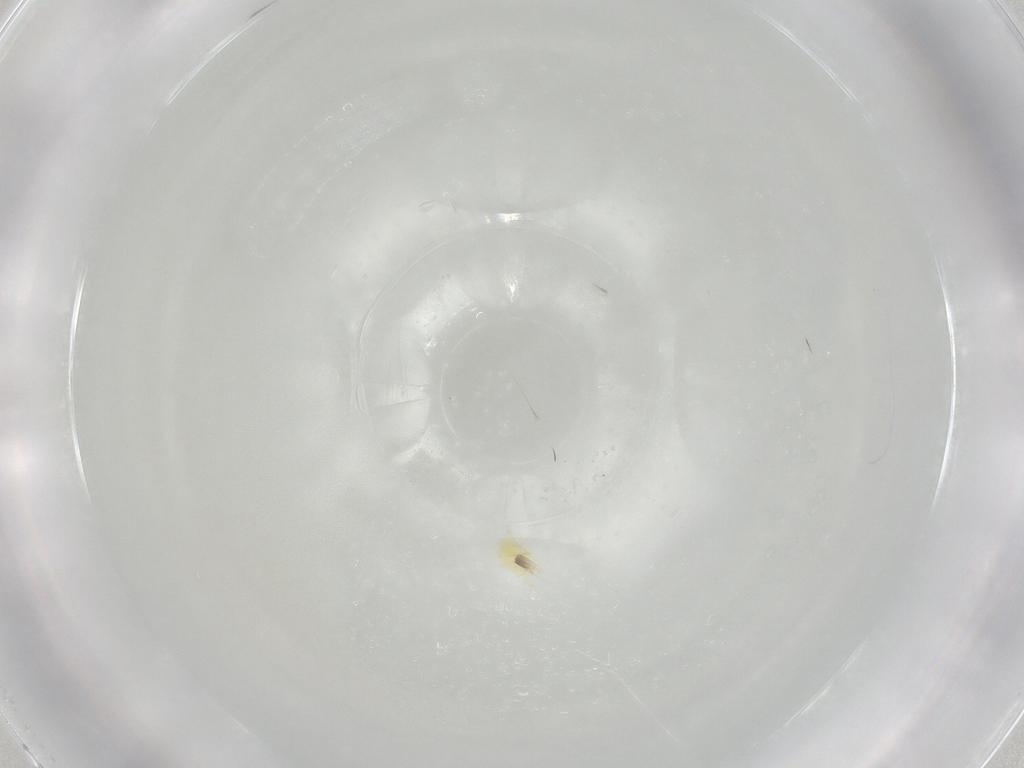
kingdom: Animalia
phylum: Arthropoda
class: Arachnida
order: Trombidiformes
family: Tetranychidae
